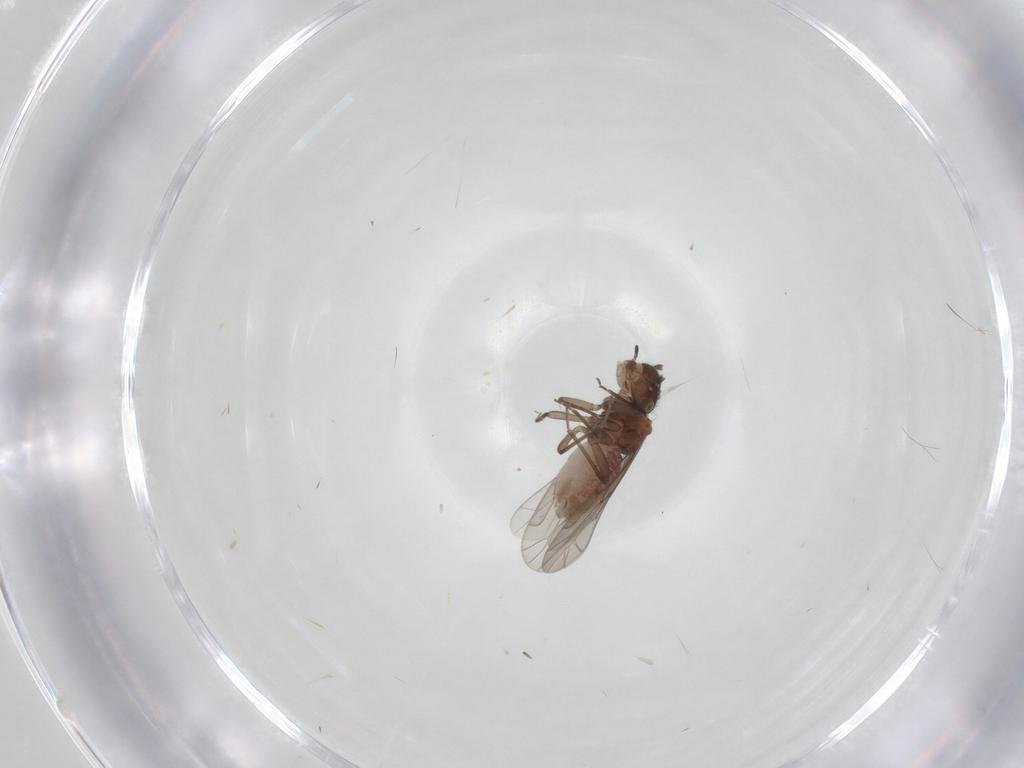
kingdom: Animalia
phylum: Arthropoda
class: Insecta
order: Psocodea
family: Ectopsocidae
